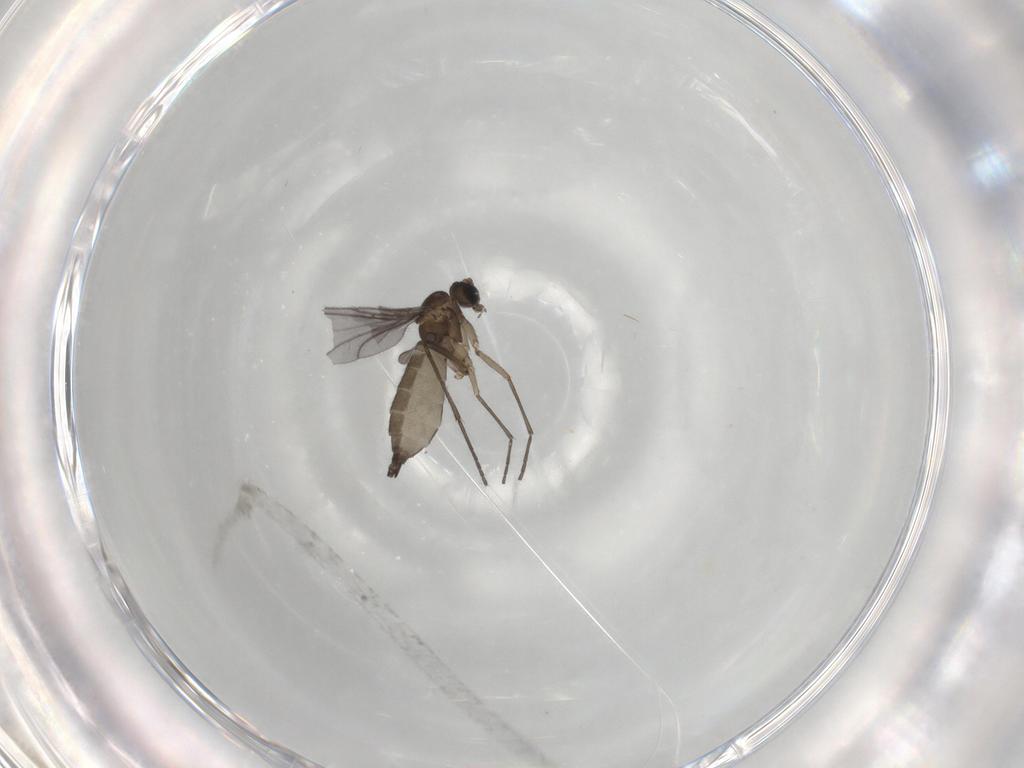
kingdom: Animalia
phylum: Arthropoda
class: Insecta
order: Diptera
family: Sciaridae
